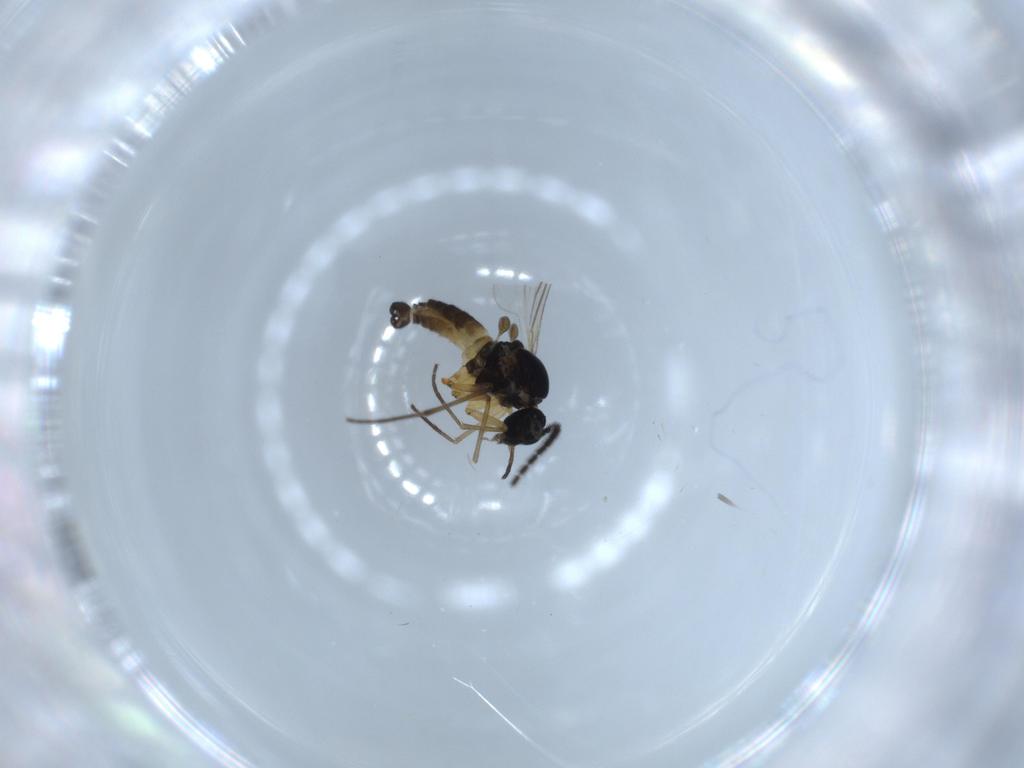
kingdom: Animalia
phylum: Arthropoda
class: Insecta
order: Diptera
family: Sciaridae
